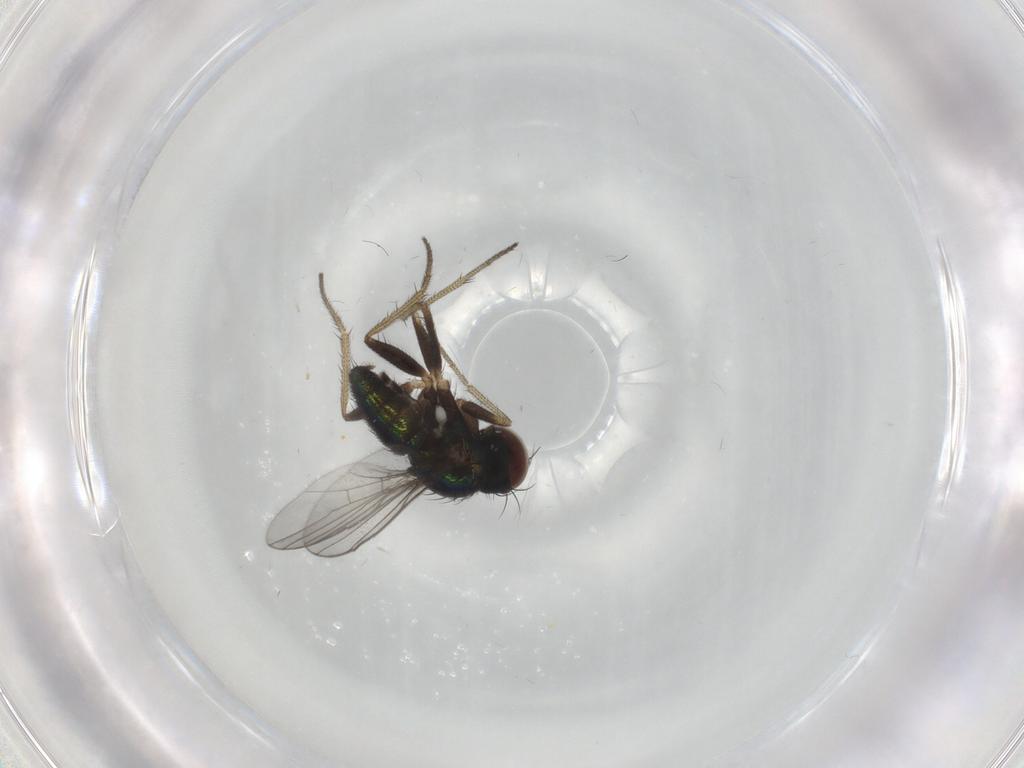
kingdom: Animalia
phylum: Arthropoda
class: Insecta
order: Diptera
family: Dolichopodidae
